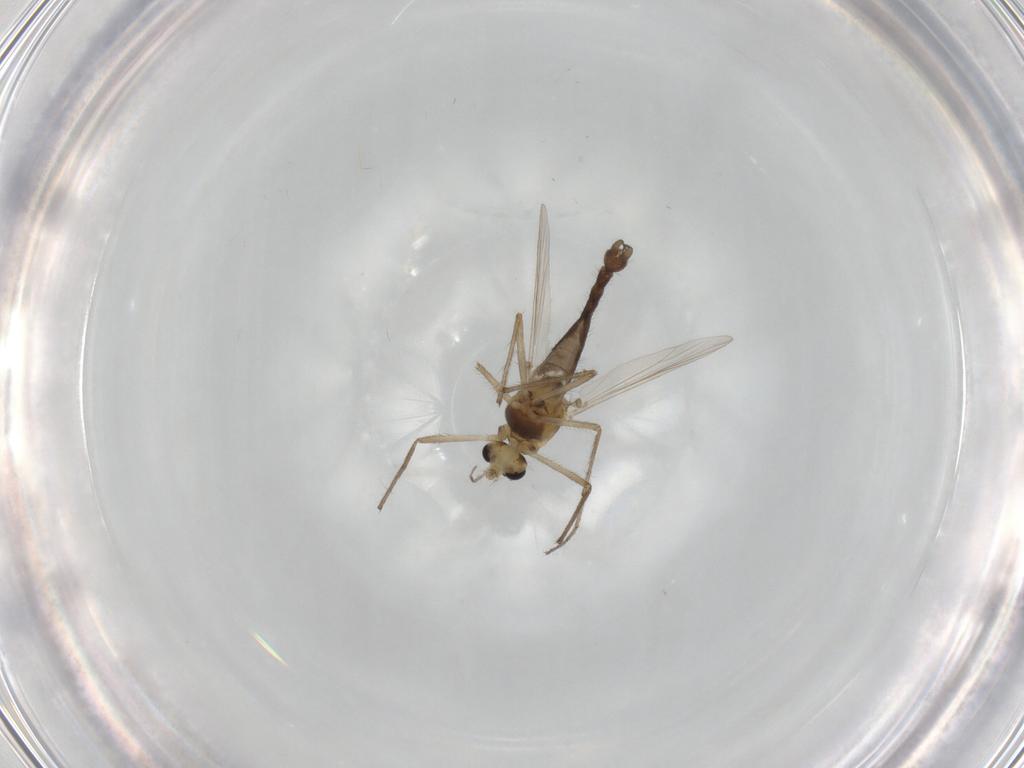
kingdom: Animalia
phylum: Arthropoda
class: Insecta
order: Diptera
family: Chironomidae
